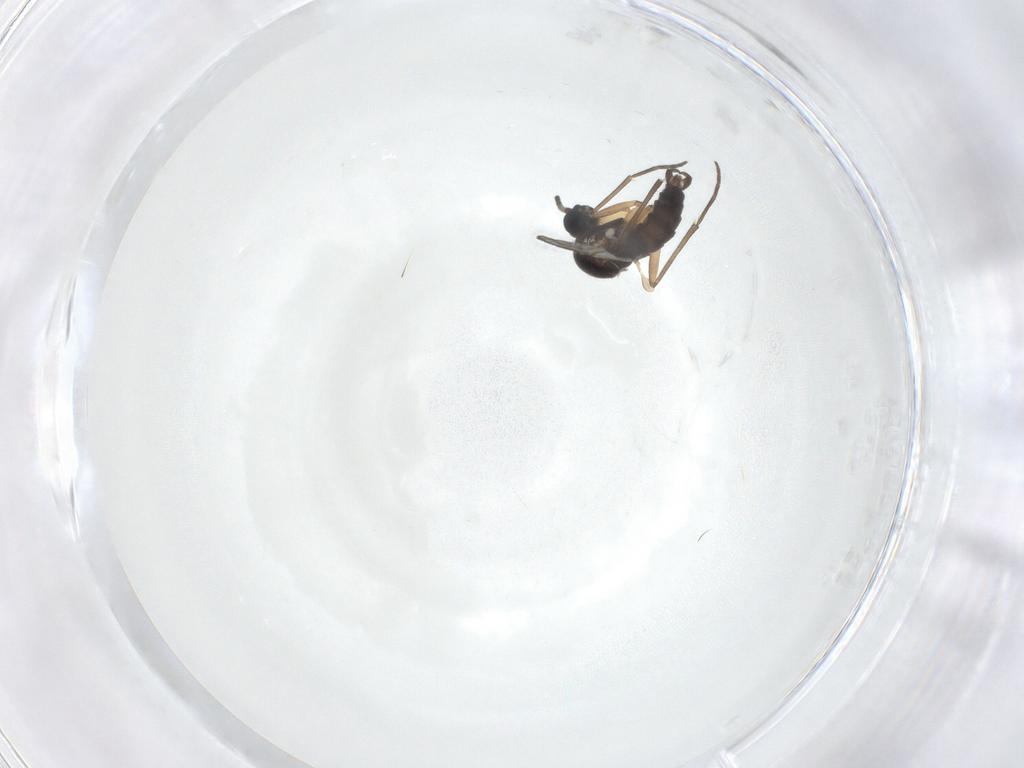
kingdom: Animalia
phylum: Arthropoda
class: Insecta
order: Diptera
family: Sciaridae
